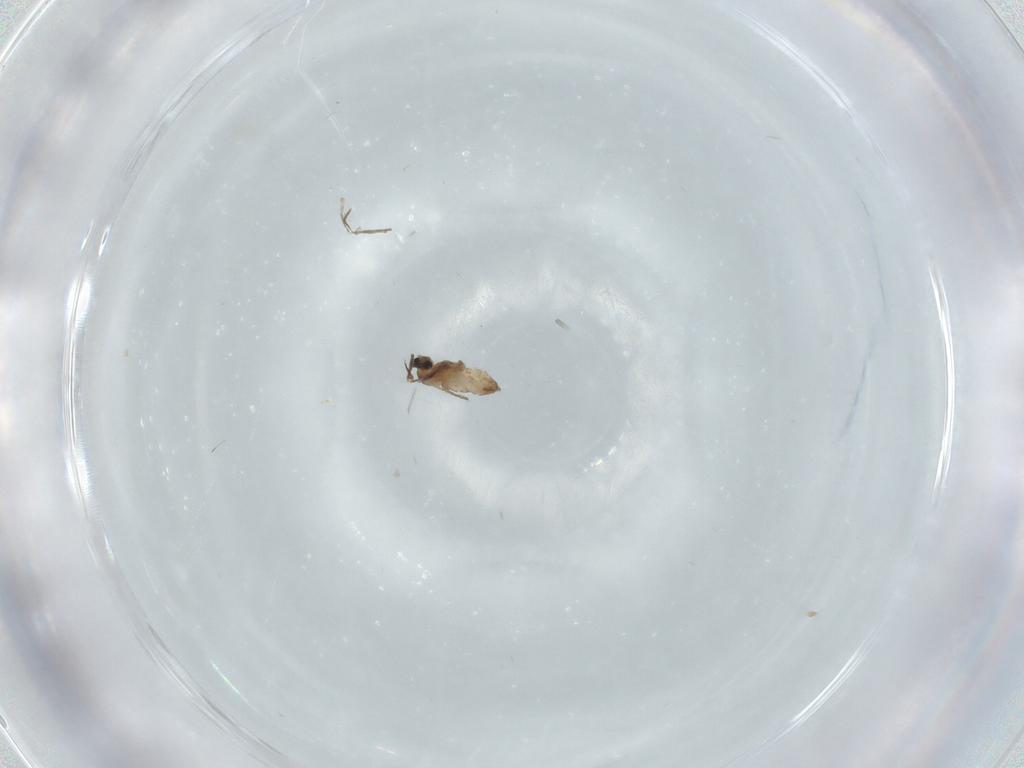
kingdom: Animalia
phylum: Arthropoda
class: Insecta
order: Diptera
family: Cecidomyiidae
